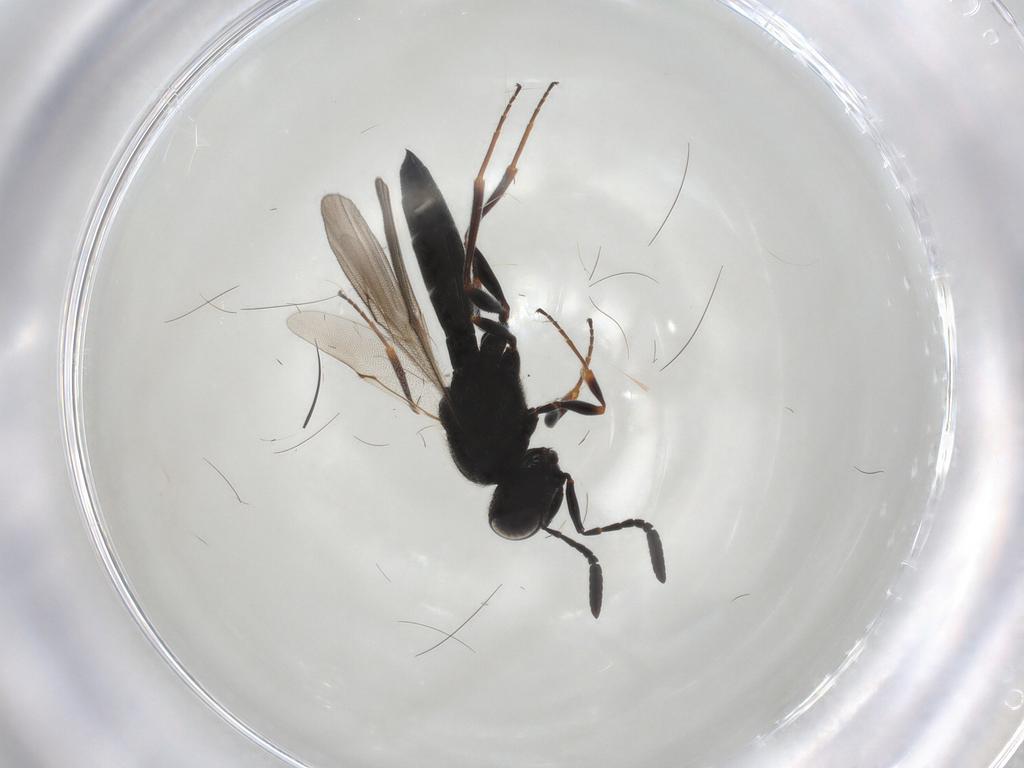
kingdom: Animalia
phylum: Arthropoda
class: Insecta
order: Hymenoptera
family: Scelionidae
